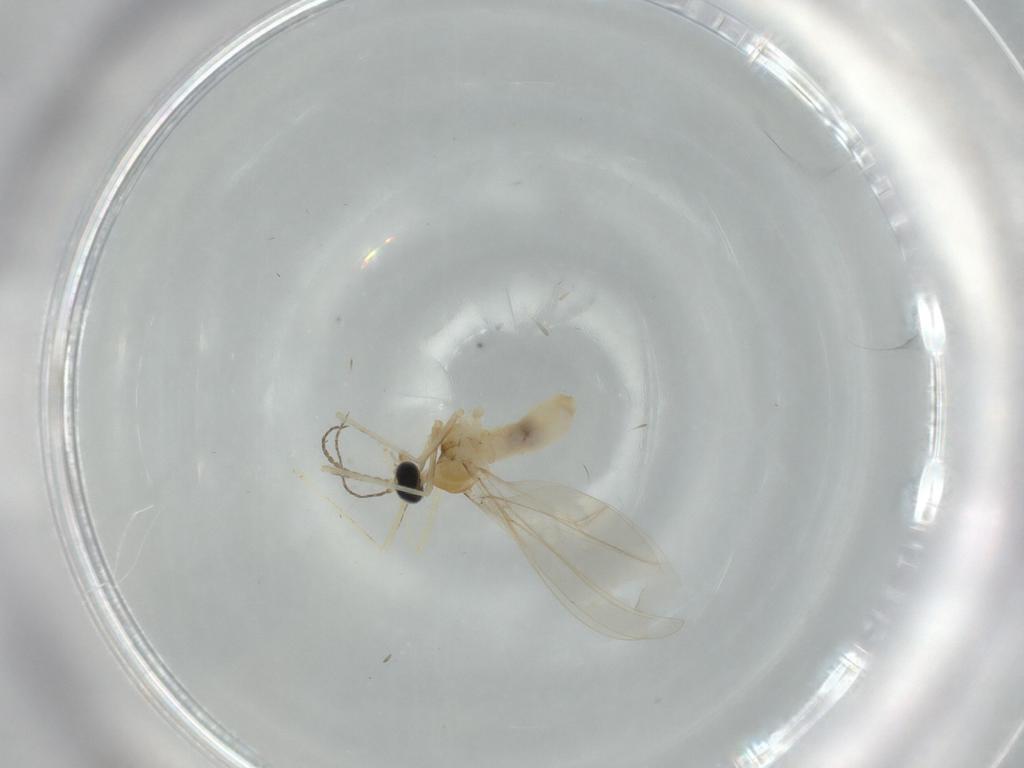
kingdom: Animalia
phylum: Arthropoda
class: Insecta
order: Diptera
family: Cecidomyiidae
